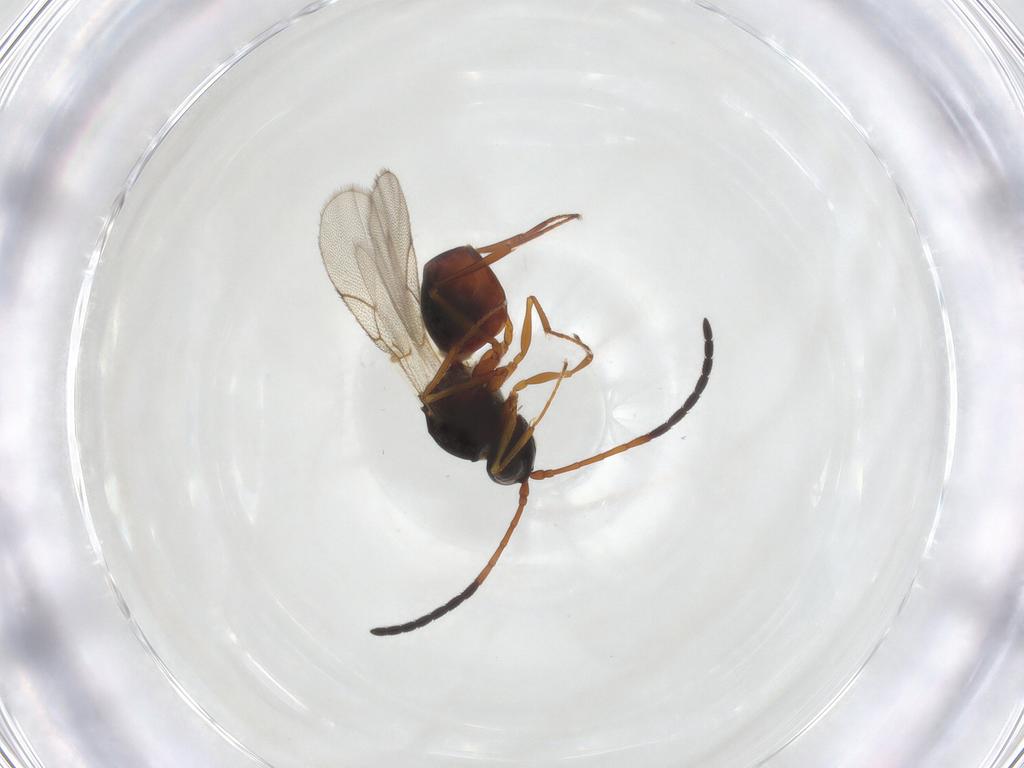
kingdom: Animalia
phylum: Arthropoda
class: Insecta
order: Hymenoptera
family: Figitidae
